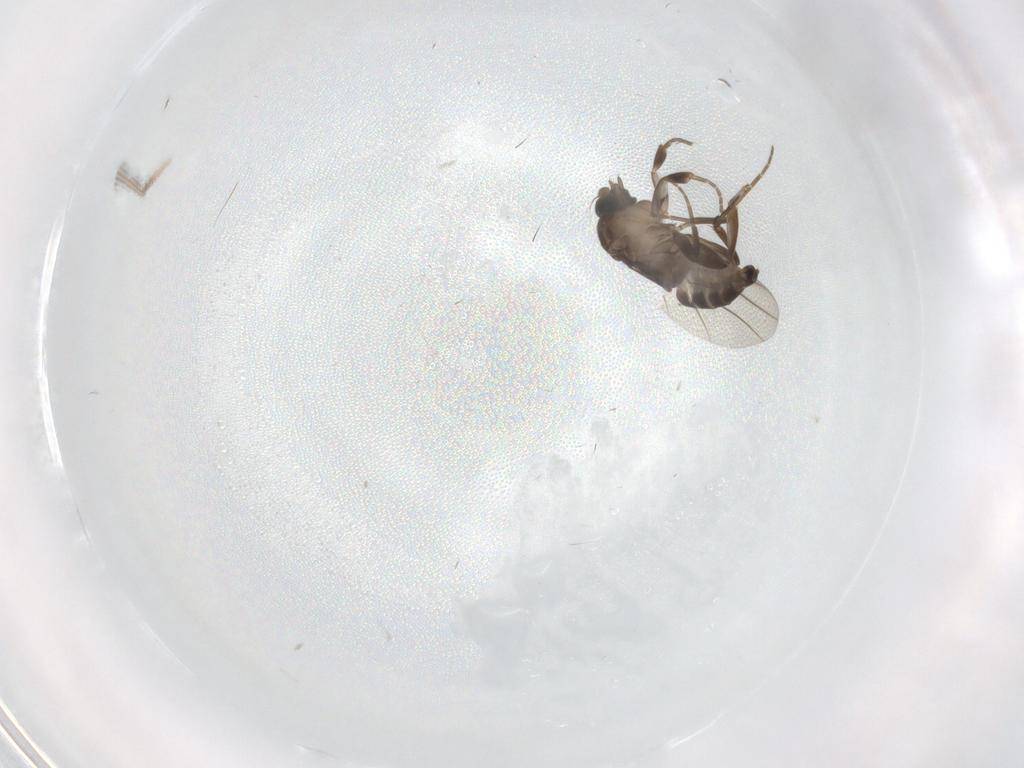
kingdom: Animalia
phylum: Arthropoda
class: Insecta
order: Diptera
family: Chironomidae
